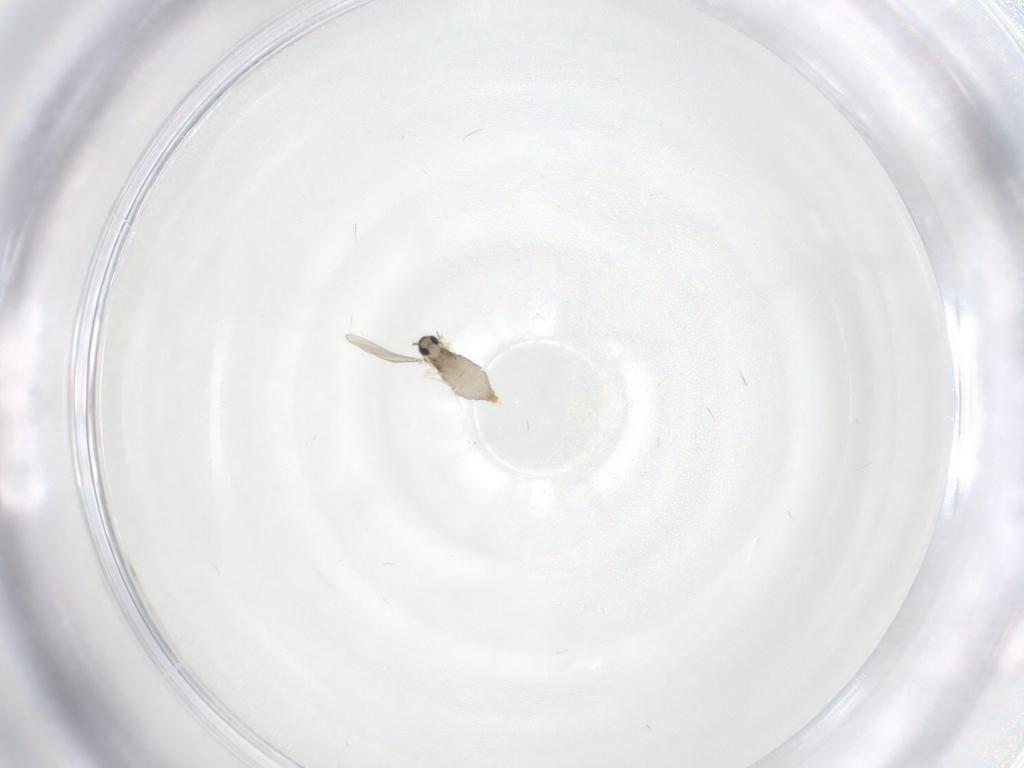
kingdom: Animalia
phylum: Arthropoda
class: Insecta
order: Diptera
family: Cecidomyiidae
